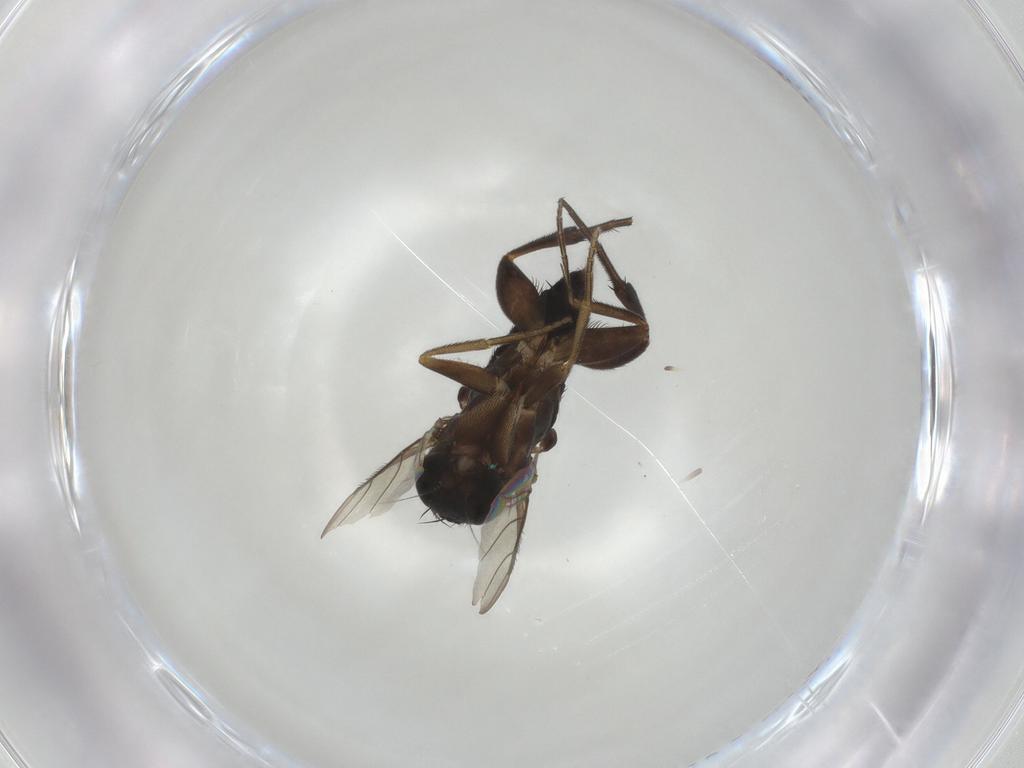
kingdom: Animalia
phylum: Arthropoda
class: Insecta
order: Diptera
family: Phoridae
